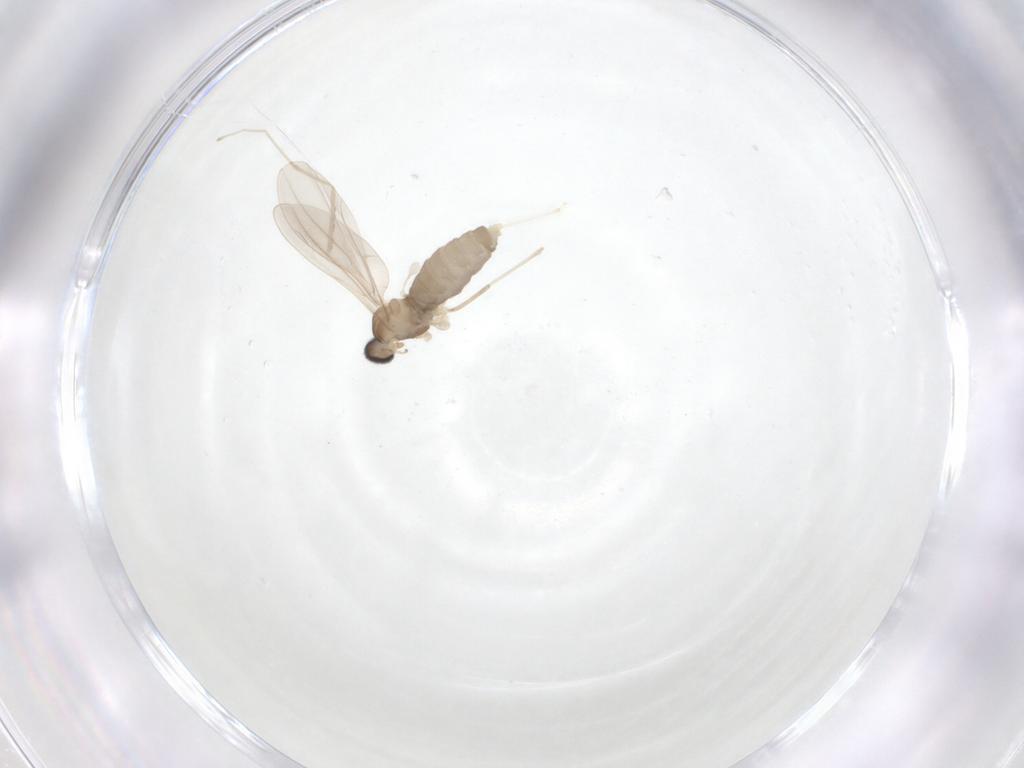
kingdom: Animalia
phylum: Arthropoda
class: Insecta
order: Diptera
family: Cecidomyiidae
